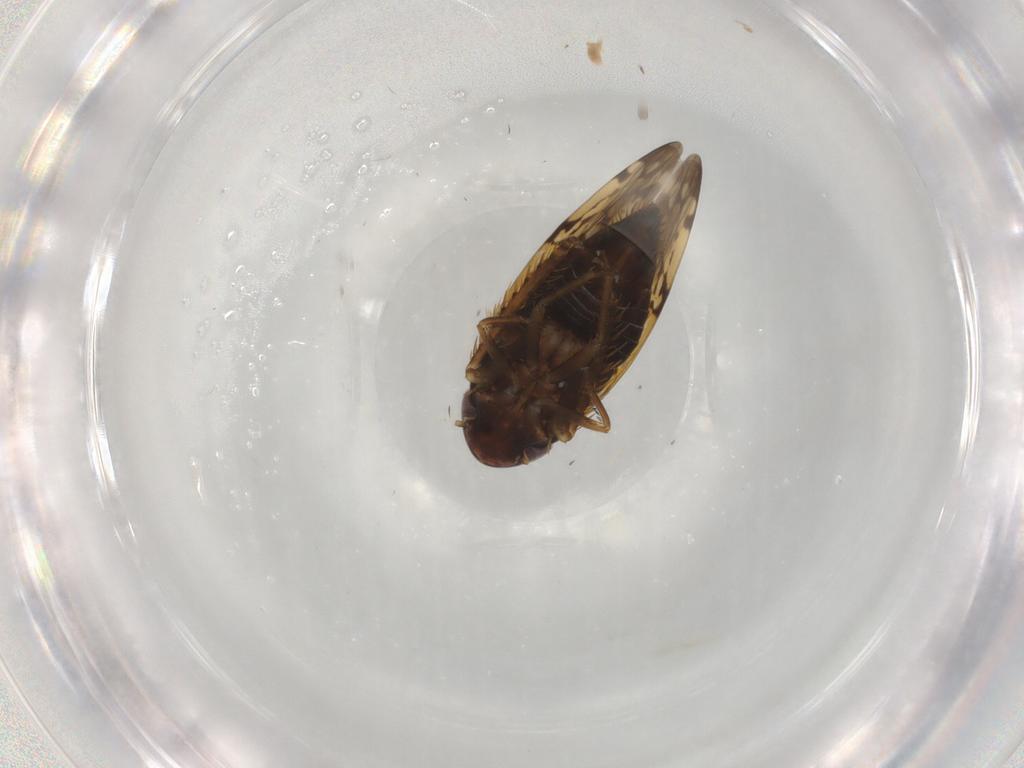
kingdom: Animalia
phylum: Arthropoda
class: Insecta
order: Hemiptera
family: Cicadellidae
